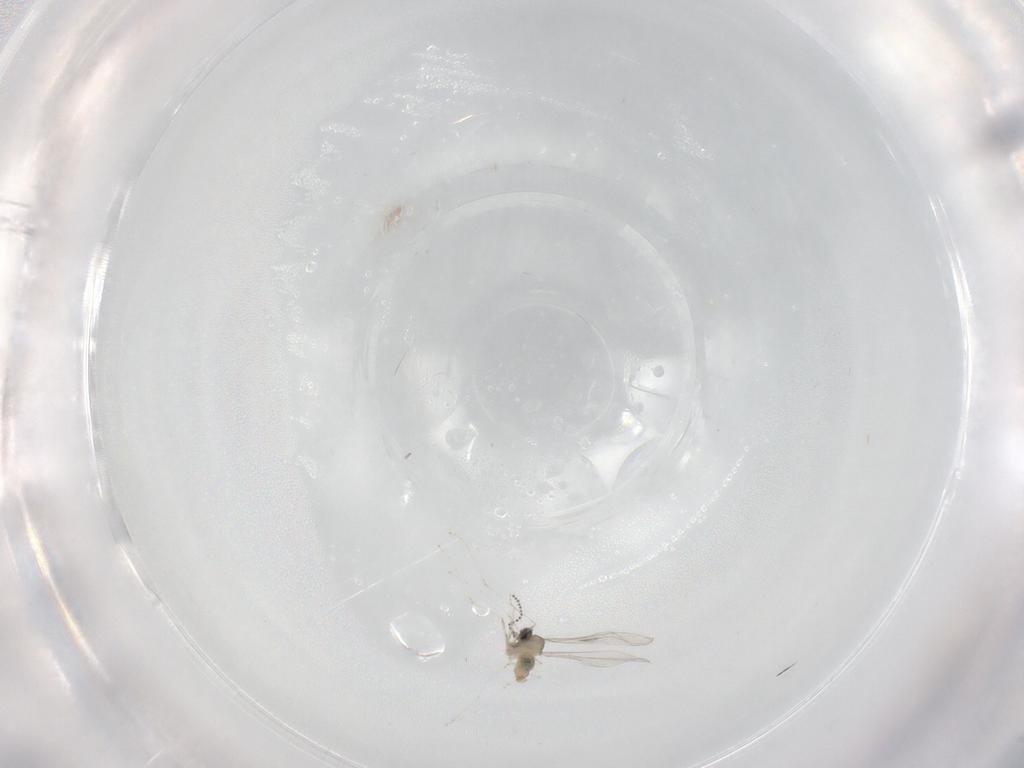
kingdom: Animalia
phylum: Arthropoda
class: Insecta
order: Diptera
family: Cecidomyiidae
